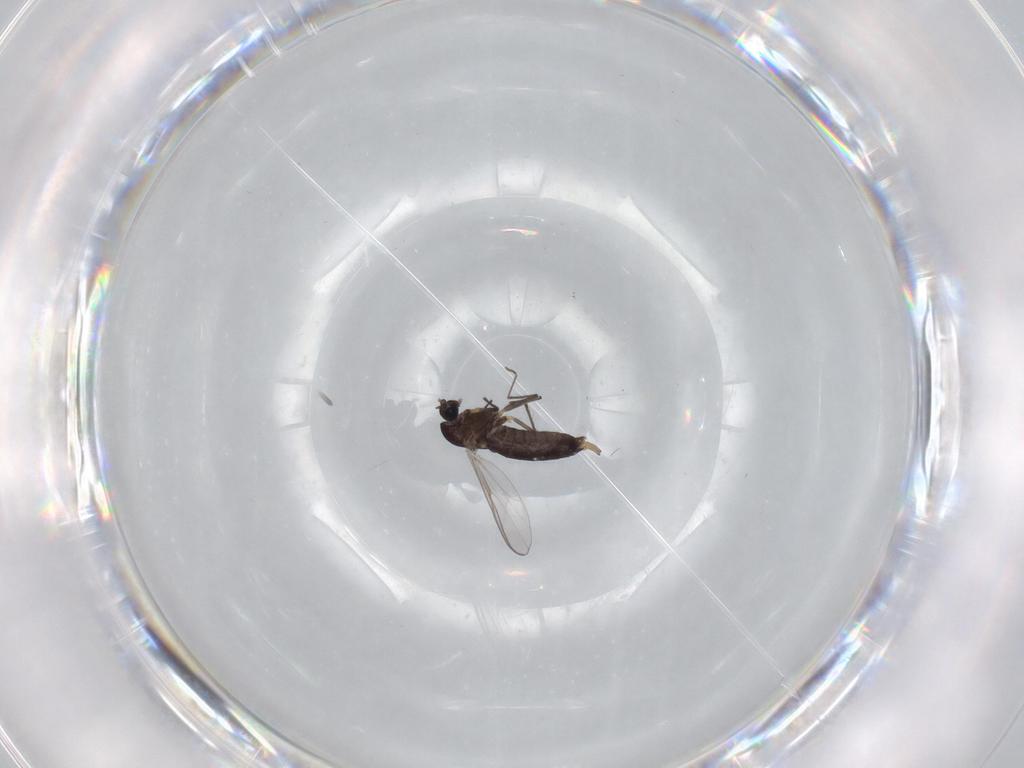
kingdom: Animalia
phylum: Arthropoda
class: Insecta
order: Diptera
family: Chironomidae
